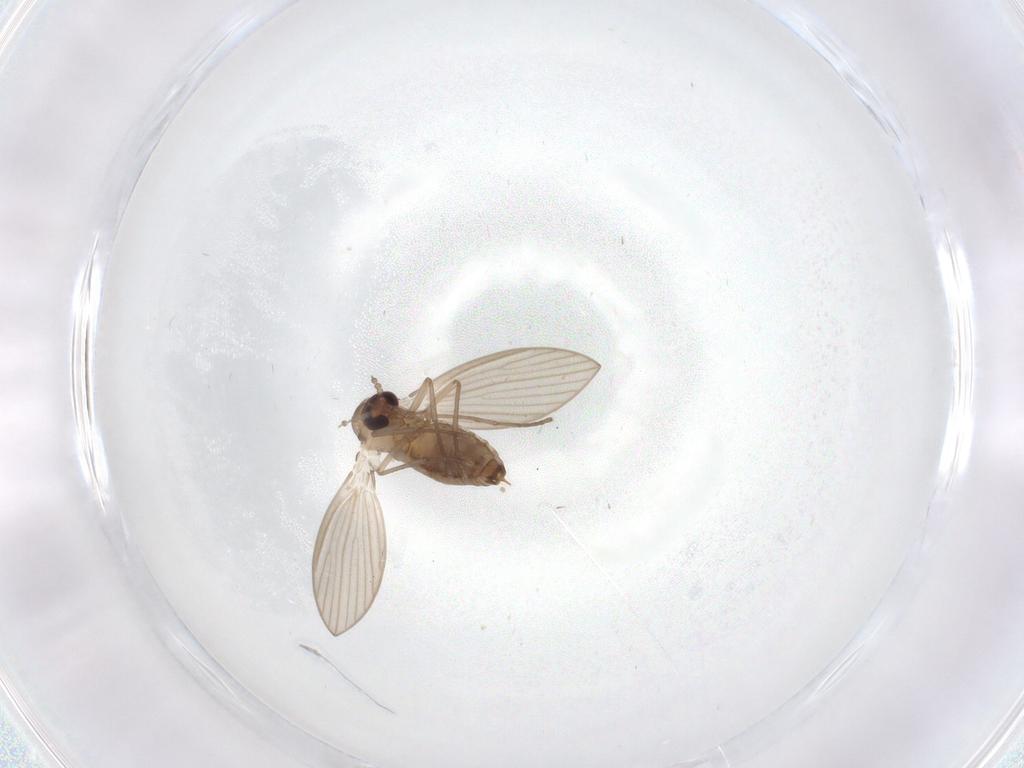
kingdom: Animalia
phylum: Arthropoda
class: Insecta
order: Diptera
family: Psychodidae
